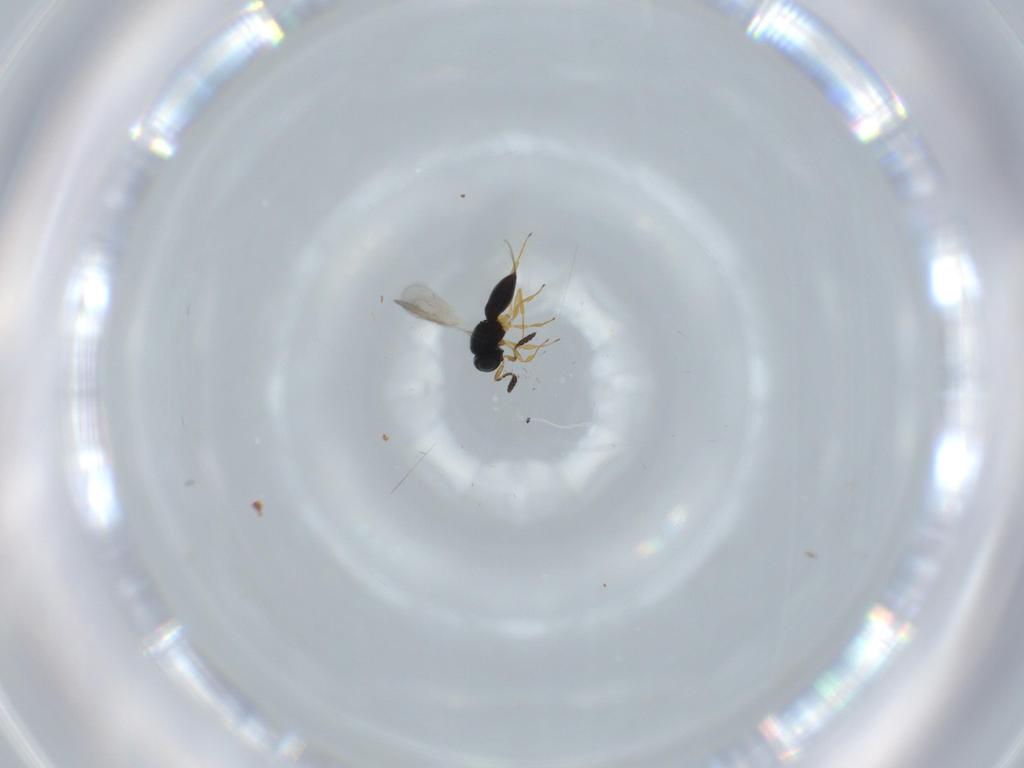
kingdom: Animalia
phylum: Arthropoda
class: Insecta
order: Hymenoptera
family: Scelionidae
